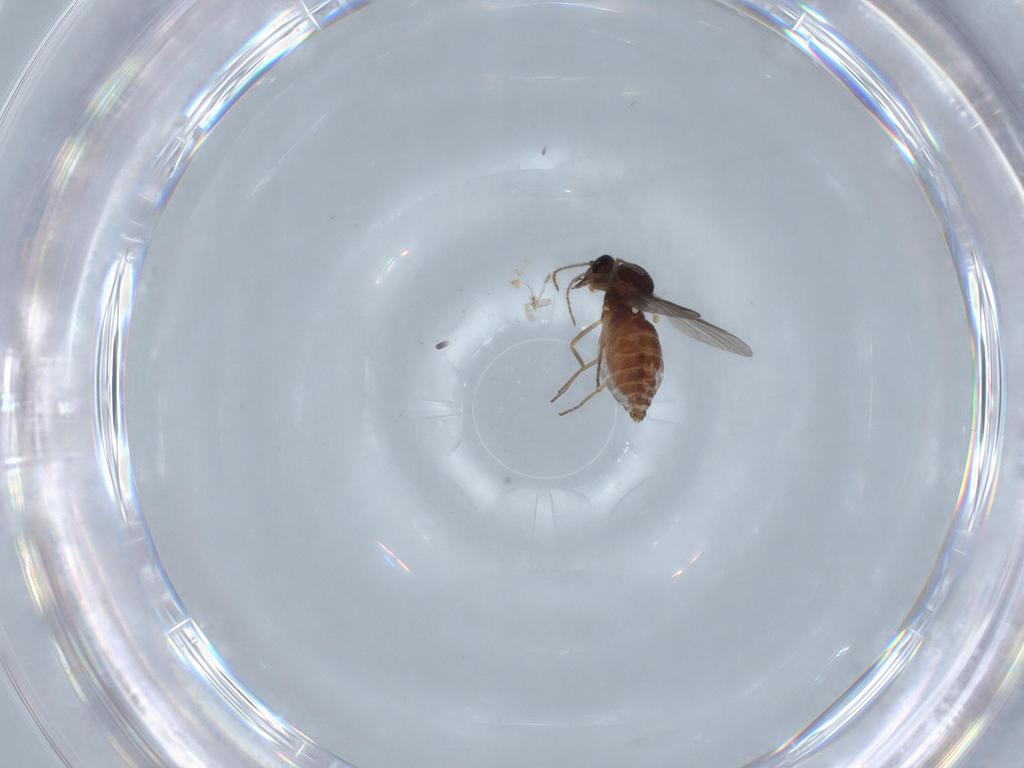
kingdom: Animalia
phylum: Arthropoda
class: Insecta
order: Diptera
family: Ceratopogonidae
